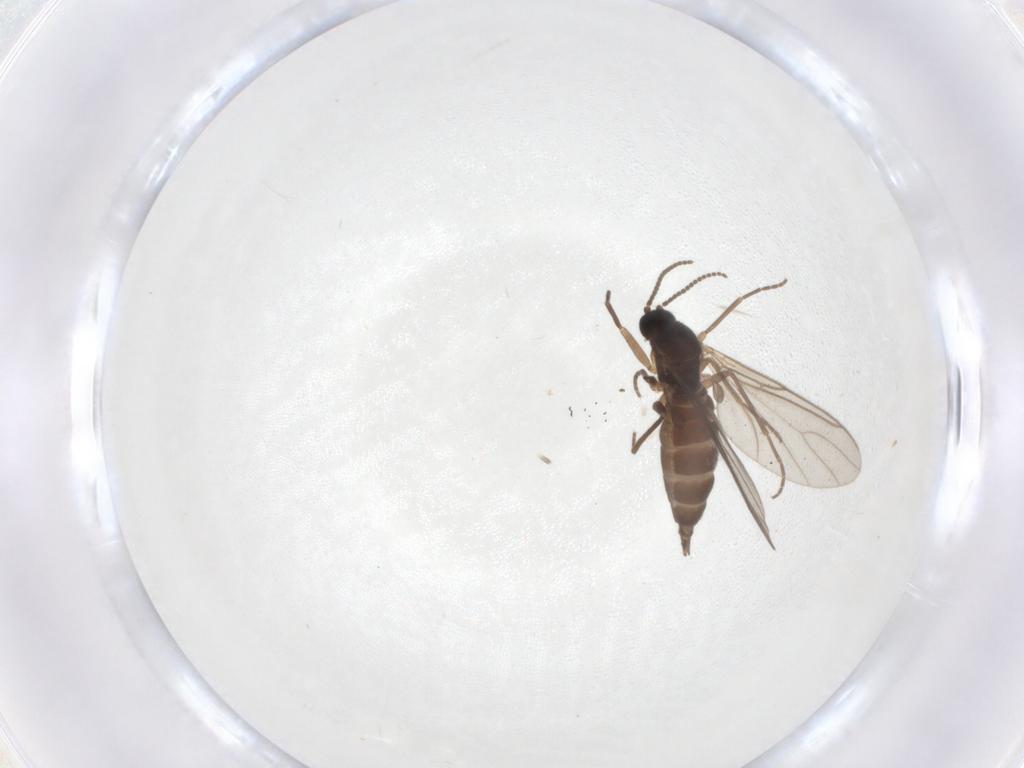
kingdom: Animalia
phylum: Arthropoda
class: Insecta
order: Diptera
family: Sciaridae
